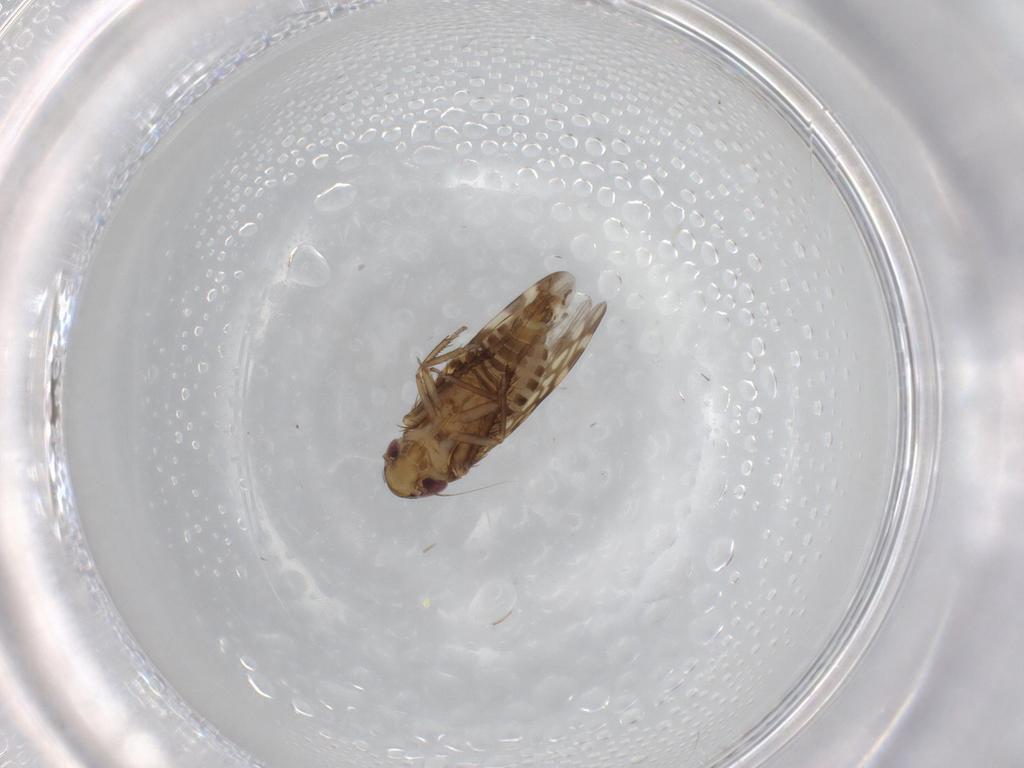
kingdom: Animalia
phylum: Arthropoda
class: Insecta
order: Hemiptera
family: Cicadellidae
